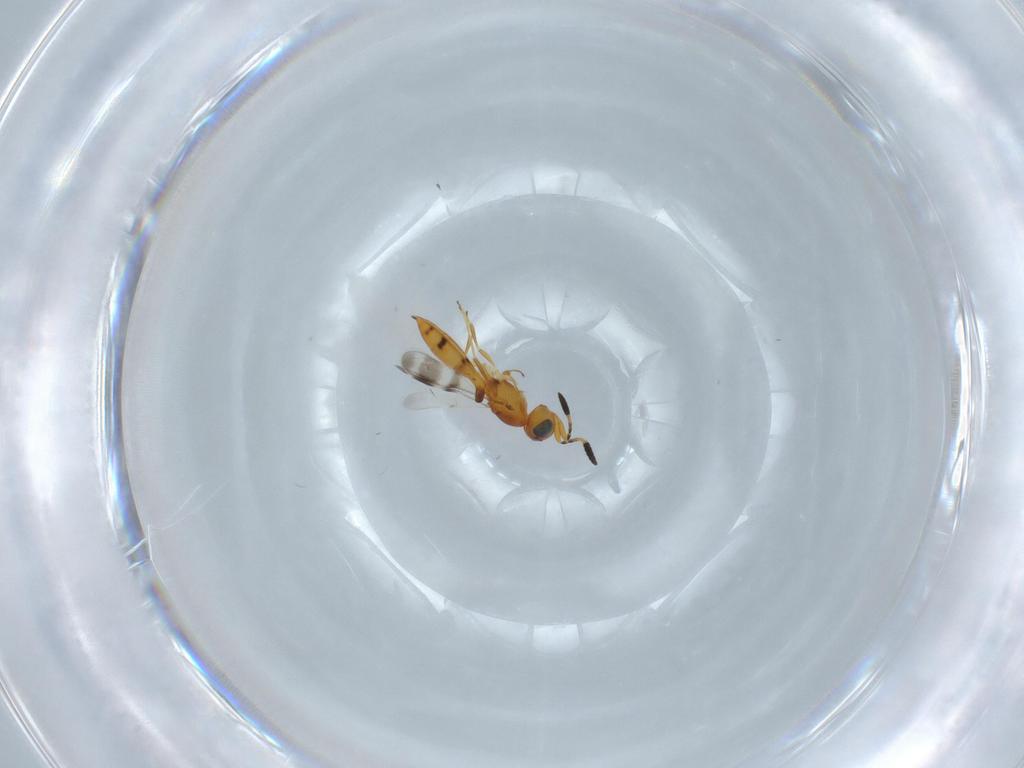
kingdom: Animalia
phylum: Arthropoda
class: Insecta
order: Hymenoptera
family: Scelionidae
